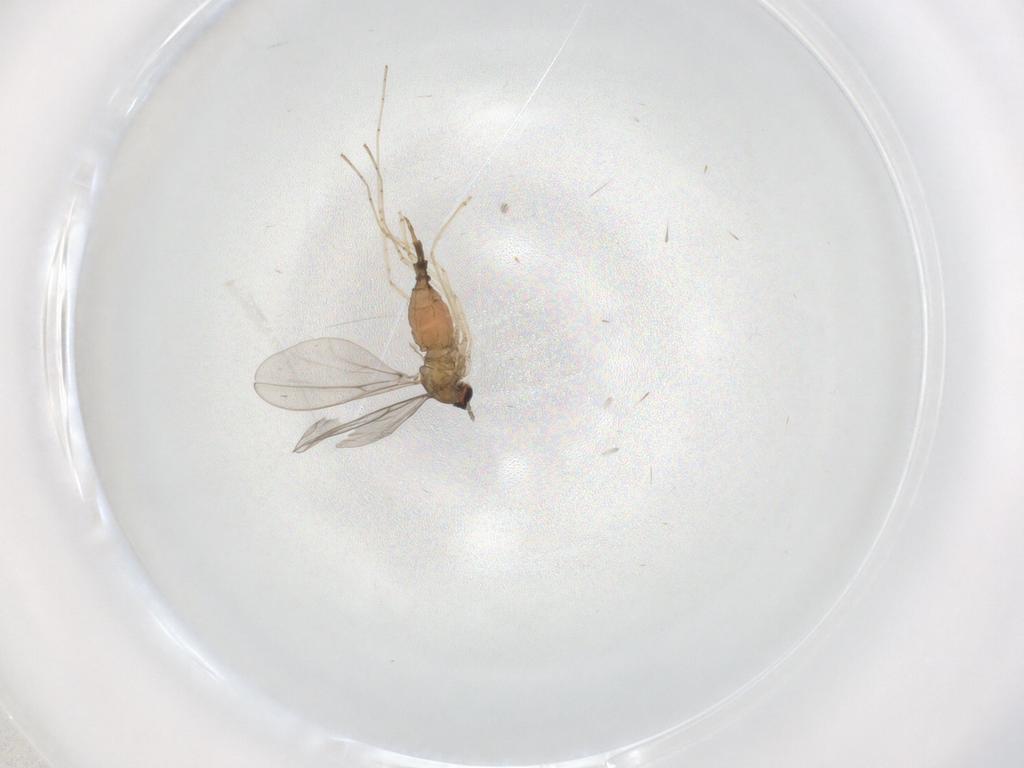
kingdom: Animalia
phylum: Arthropoda
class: Insecta
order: Diptera
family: Cecidomyiidae
